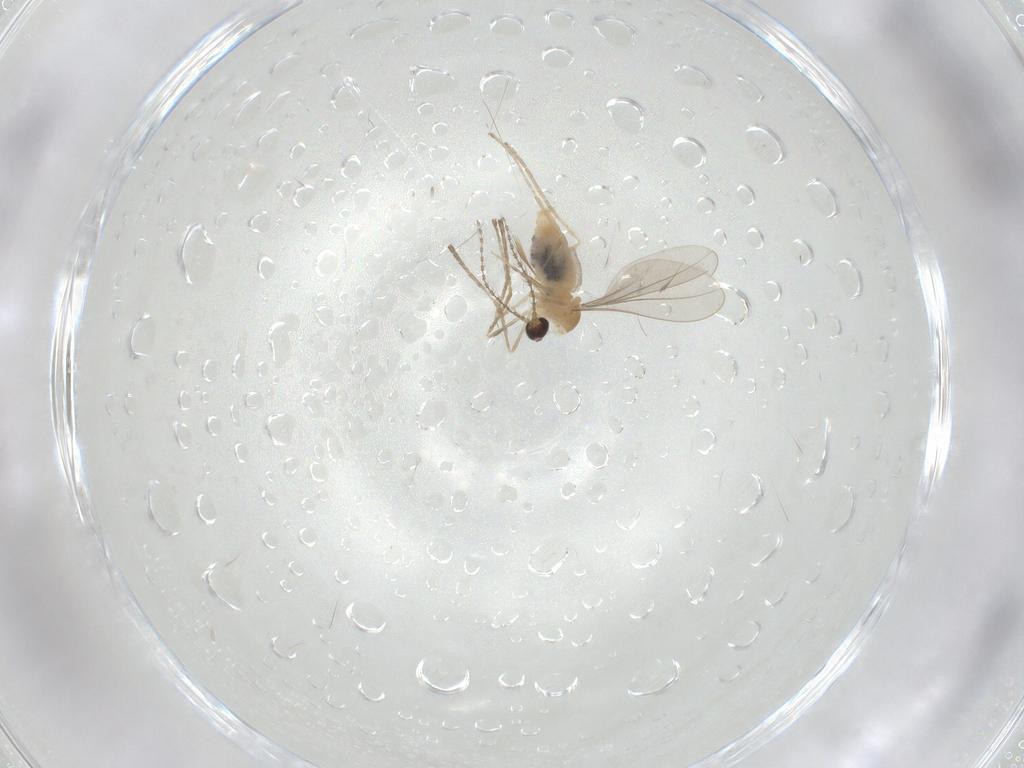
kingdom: Animalia
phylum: Arthropoda
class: Insecta
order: Diptera
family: Cecidomyiidae
